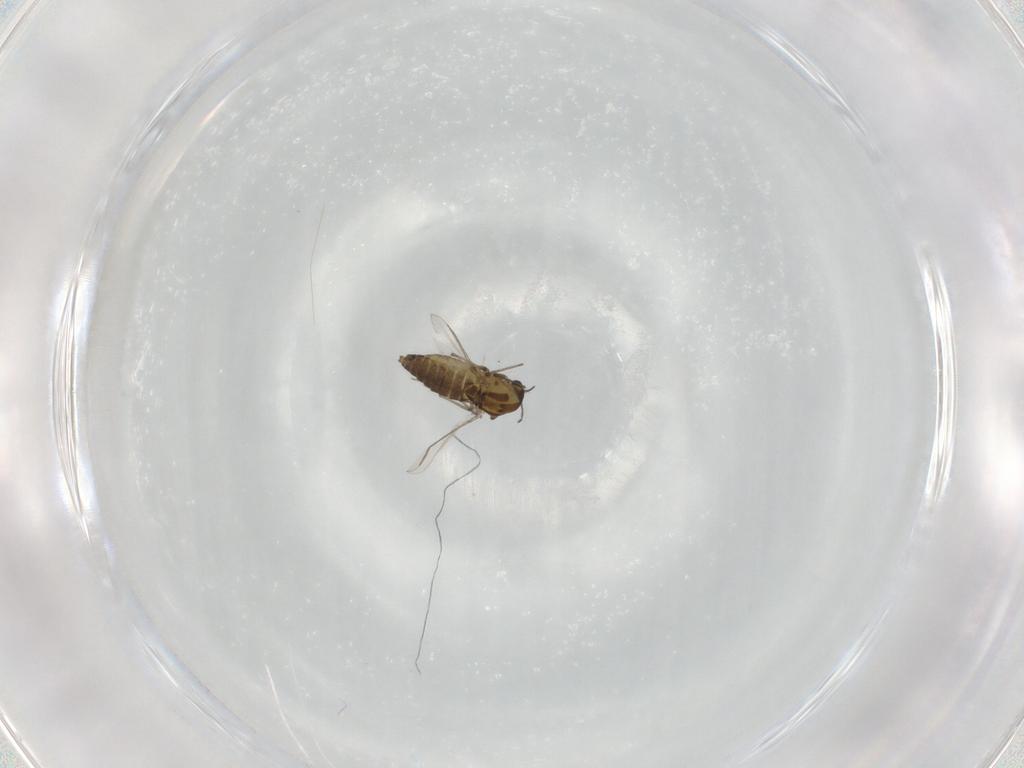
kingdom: Animalia
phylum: Arthropoda
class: Insecta
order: Diptera
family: Chironomidae
